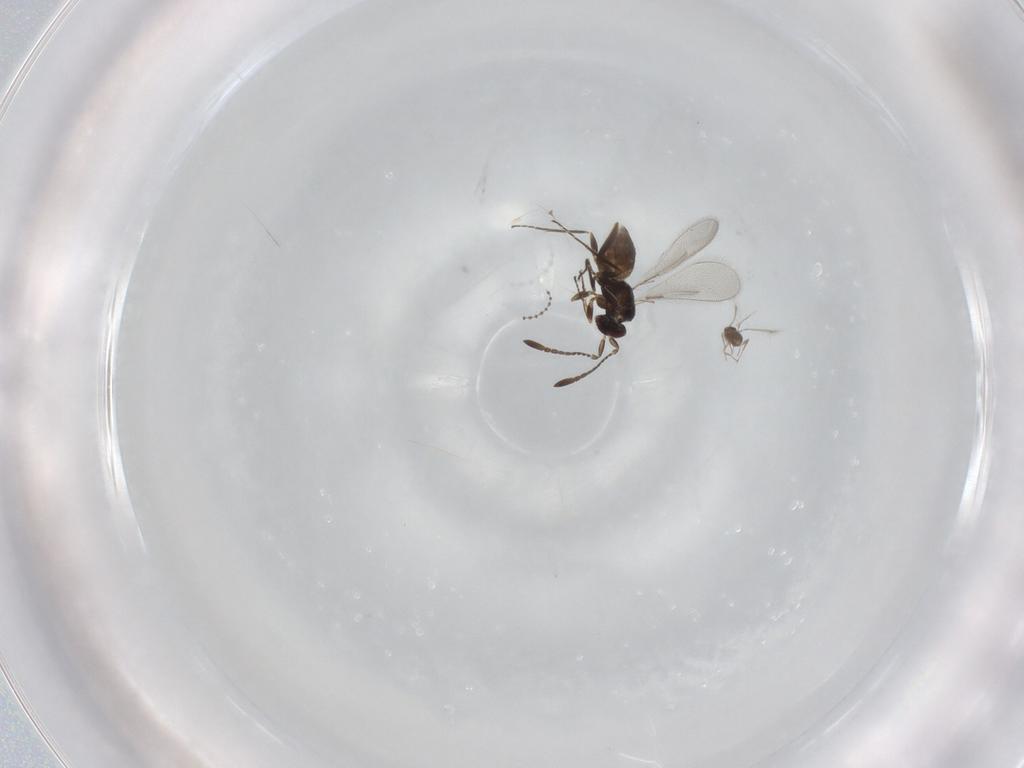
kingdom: Animalia
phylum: Arthropoda
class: Insecta
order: Hymenoptera
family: Mymaridae
